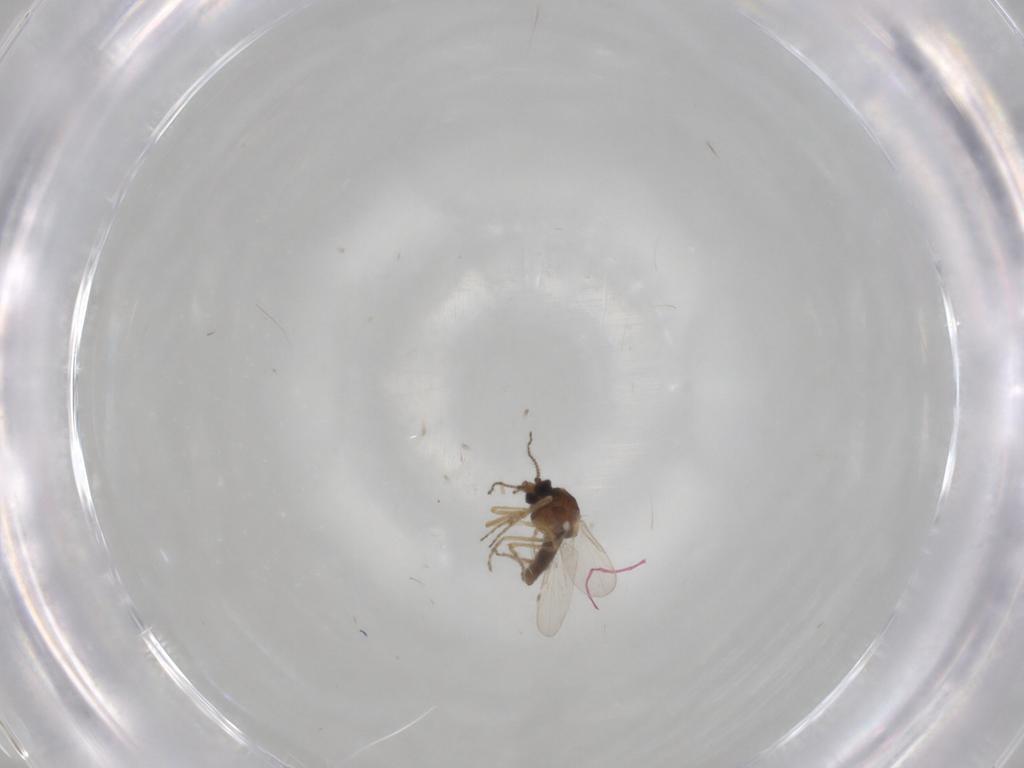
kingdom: Animalia
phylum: Arthropoda
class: Insecta
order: Diptera
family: Ceratopogonidae
